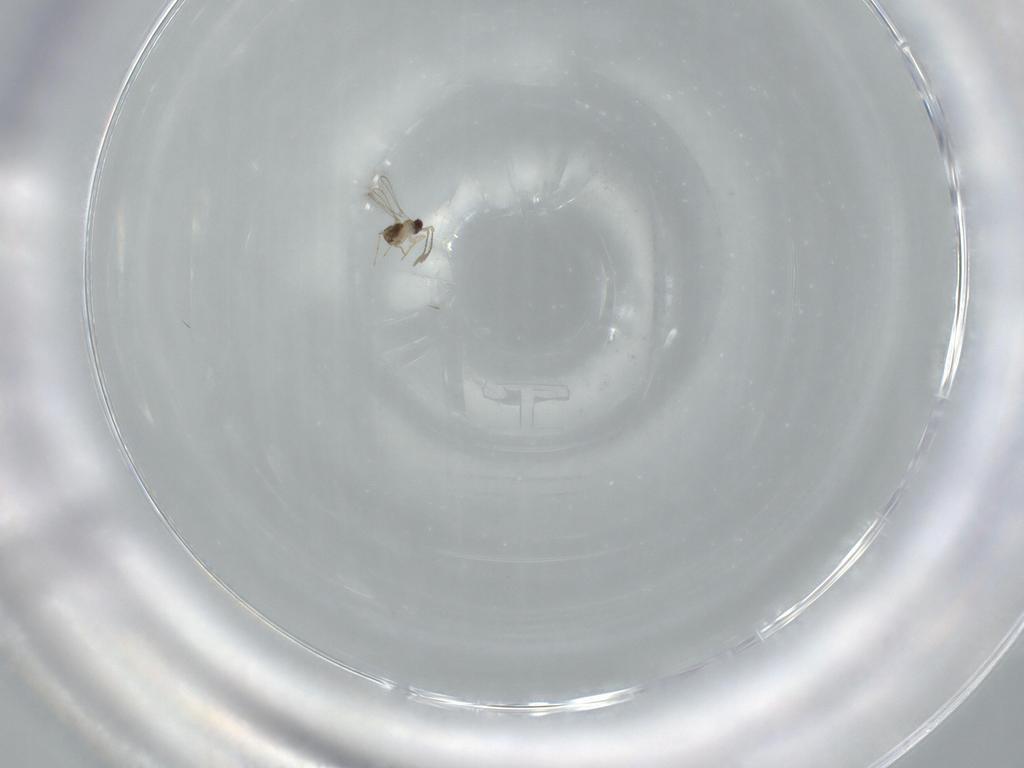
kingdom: Animalia
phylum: Arthropoda
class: Insecta
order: Hymenoptera
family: Mymaridae
